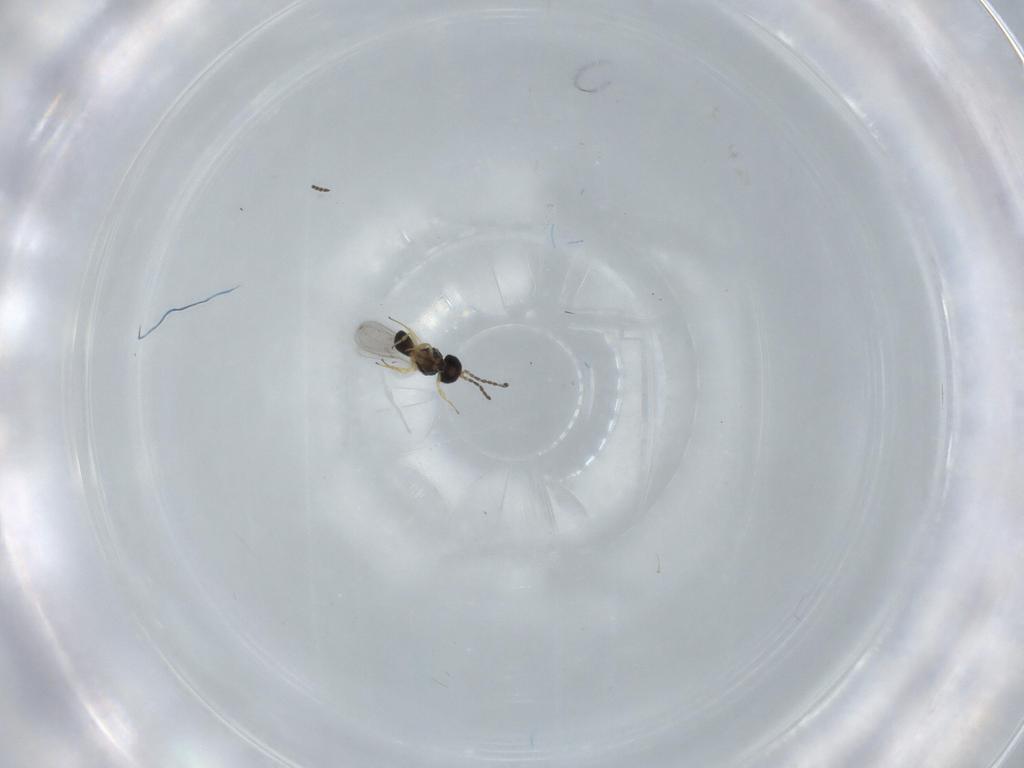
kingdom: Animalia
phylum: Arthropoda
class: Insecta
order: Hymenoptera
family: Scelionidae
